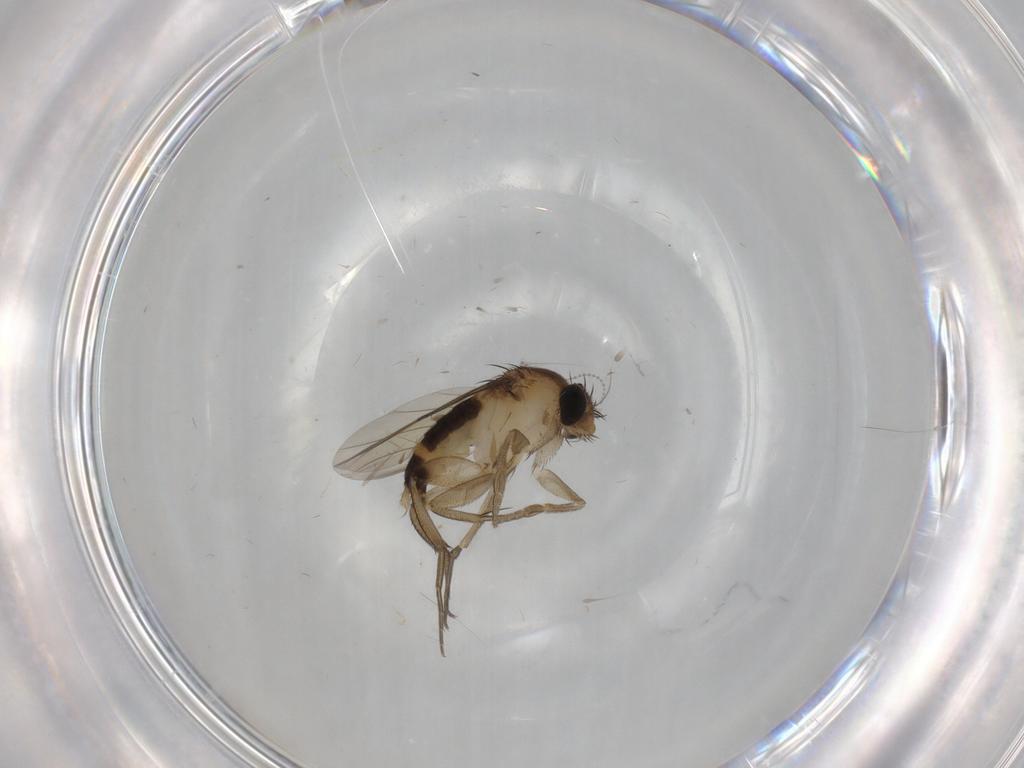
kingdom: Animalia
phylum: Arthropoda
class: Insecta
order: Diptera
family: Phoridae
